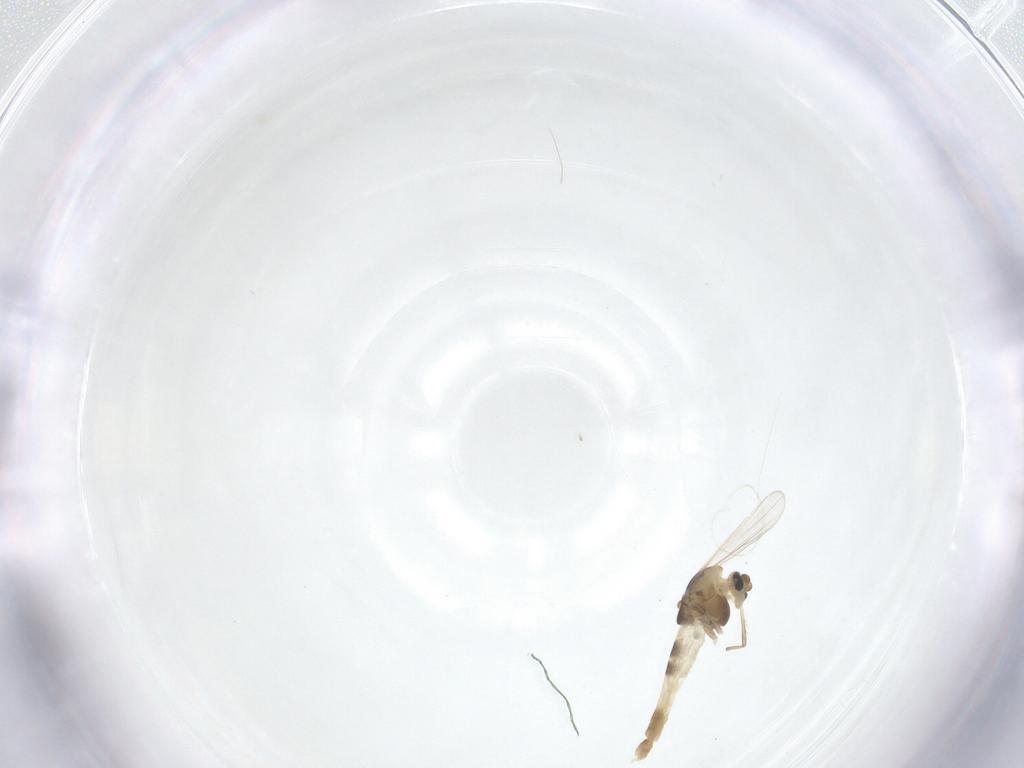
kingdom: Animalia
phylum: Arthropoda
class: Insecta
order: Diptera
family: Chironomidae
